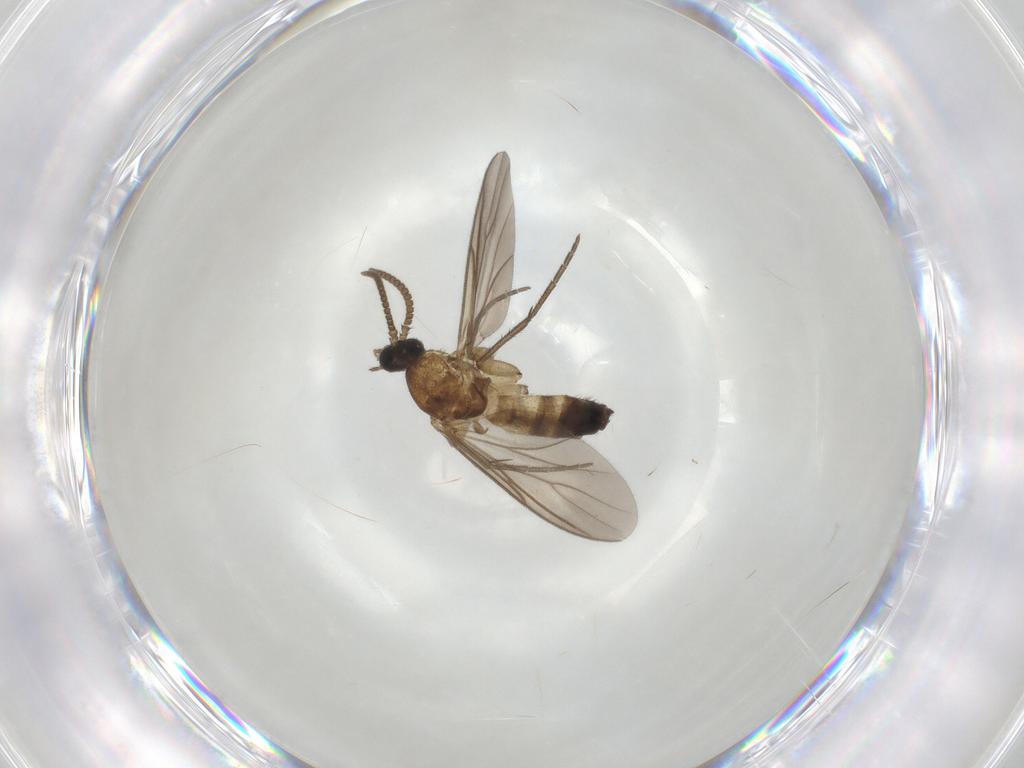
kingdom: Animalia
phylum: Arthropoda
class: Insecta
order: Diptera
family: Mycetophilidae
